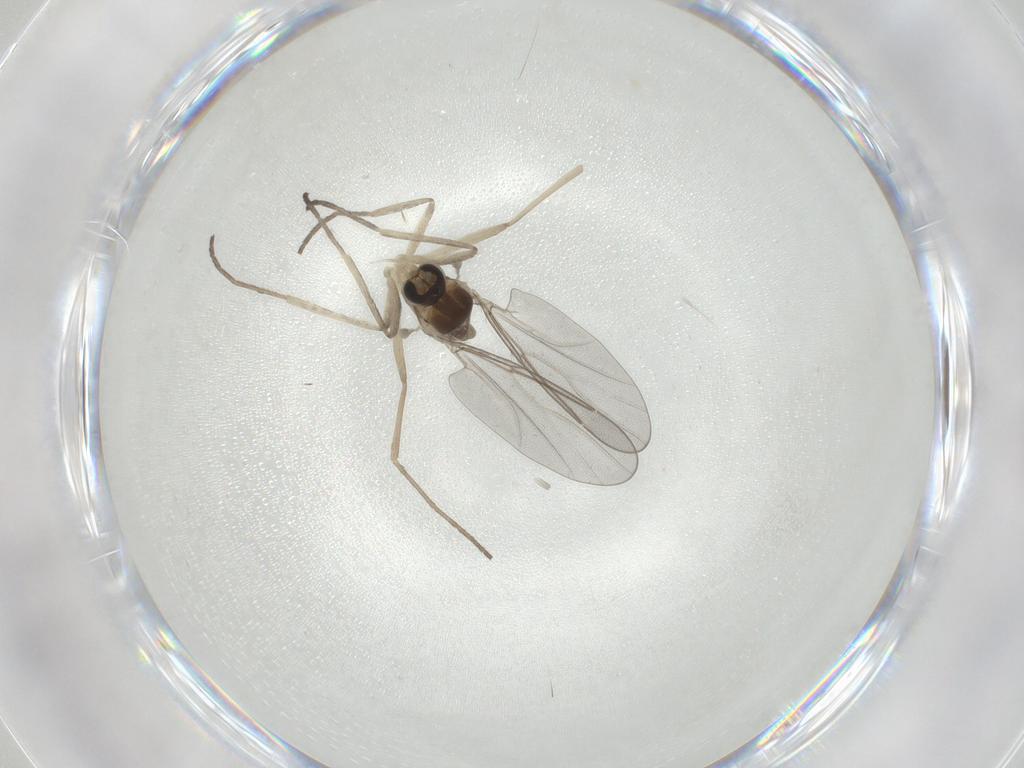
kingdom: Animalia
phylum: Arthropoda
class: Insecta
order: Diptera
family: Cecidomyiidae
